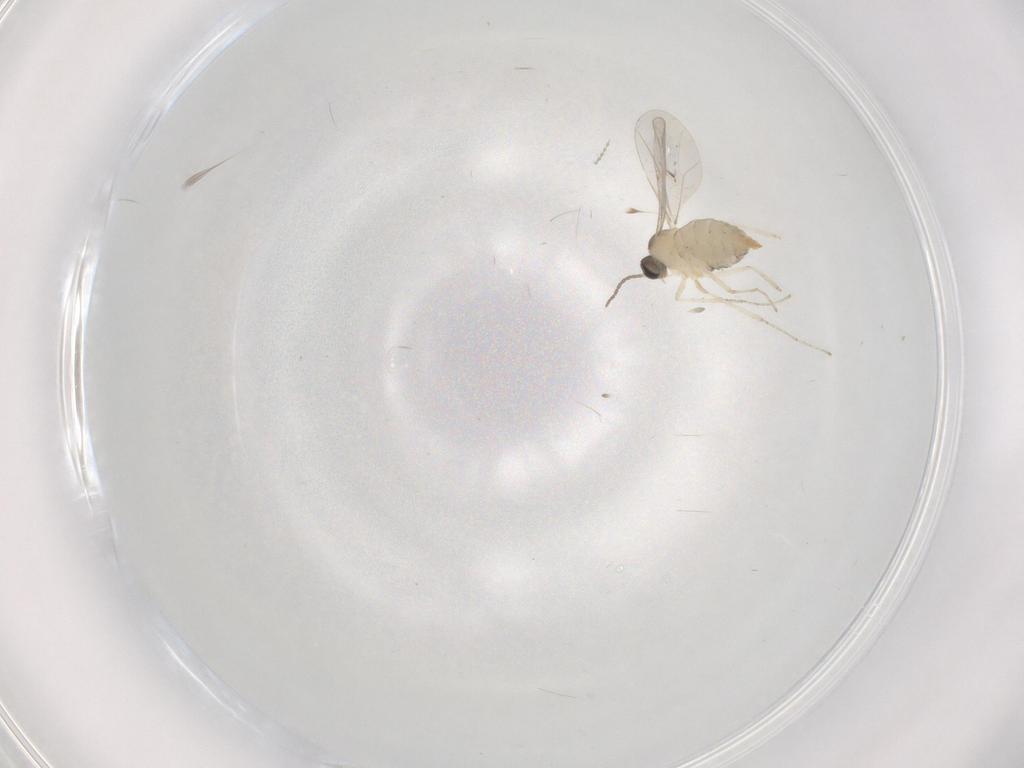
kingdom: Animalia
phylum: Arthropoda
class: Insecta
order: Diptera
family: Cecidomyiidae
